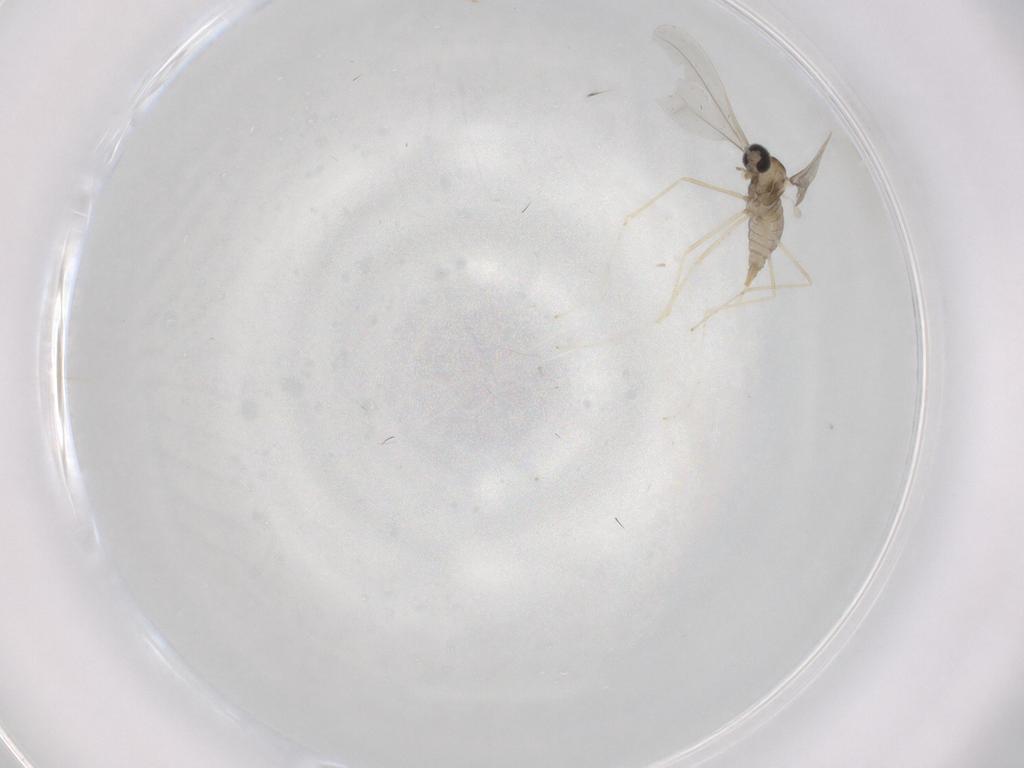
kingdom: Animalia
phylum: Arthropoda
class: Insecta
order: Diptera
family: Cecidomyiidae
